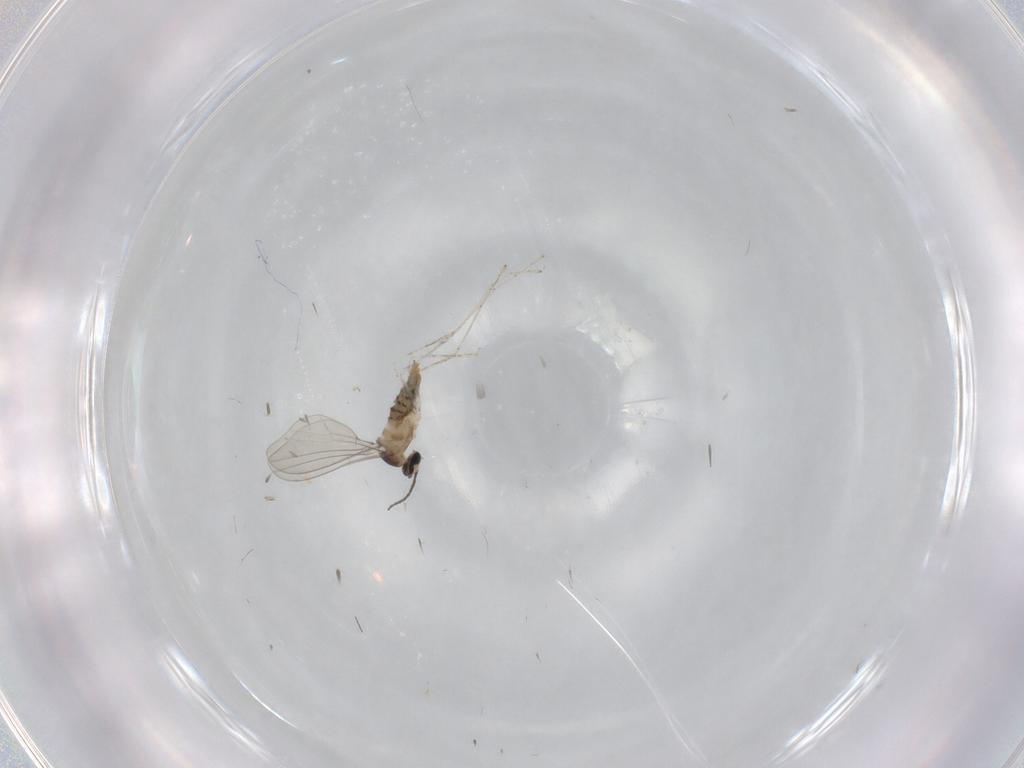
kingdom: Animalia
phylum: Arthropoda
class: Insecta
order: Diptera
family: Cecidomyiidae
